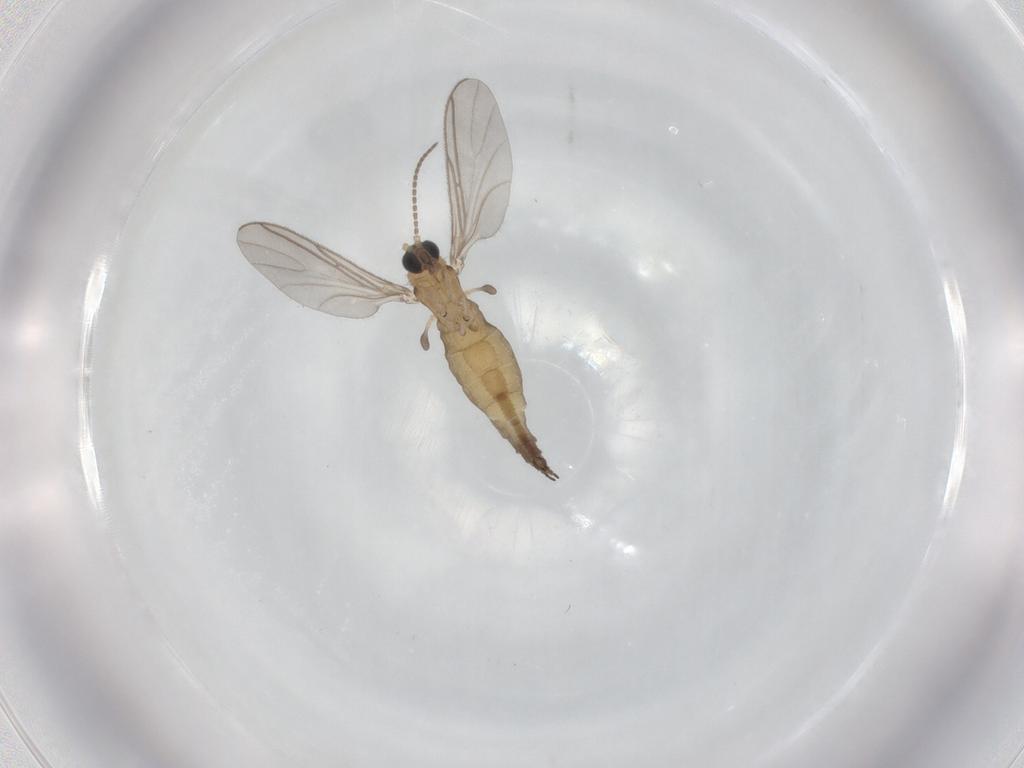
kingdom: Animalia
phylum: Arthropoda
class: Insecta
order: Diptera
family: Sciaridae
